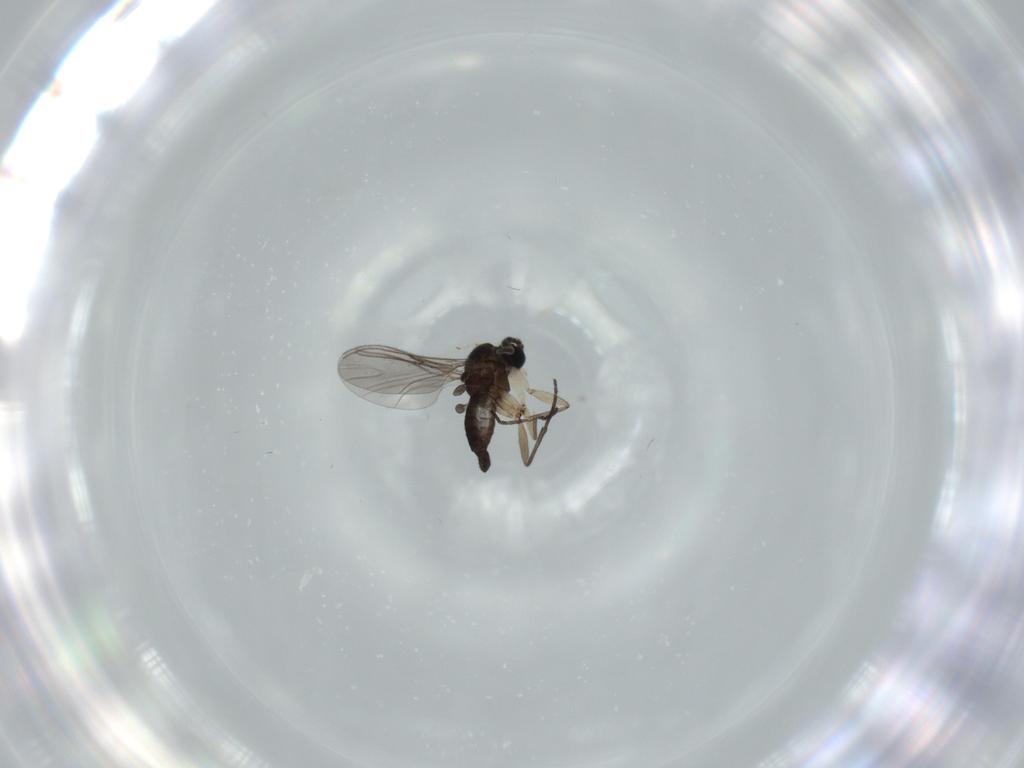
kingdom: Animalia
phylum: Arthropoda
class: Insecta
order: Diptera
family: Sciaridae
